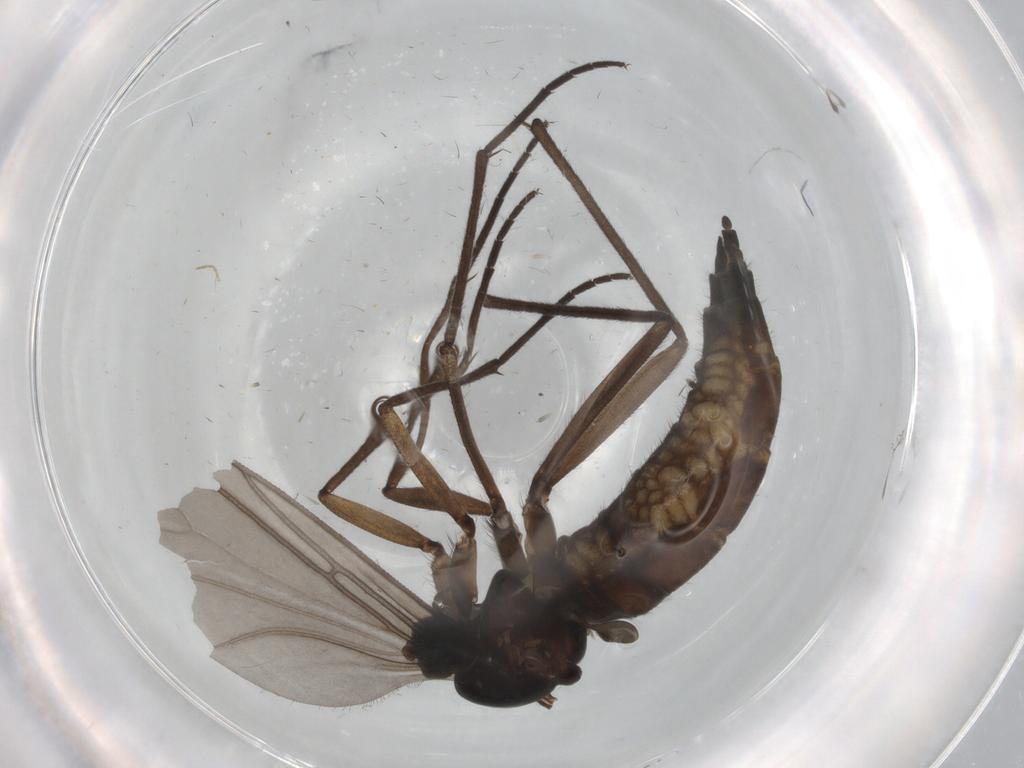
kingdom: Animalia
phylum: Arthropoda
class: Insecta
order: Diptera
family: Sciaridae
